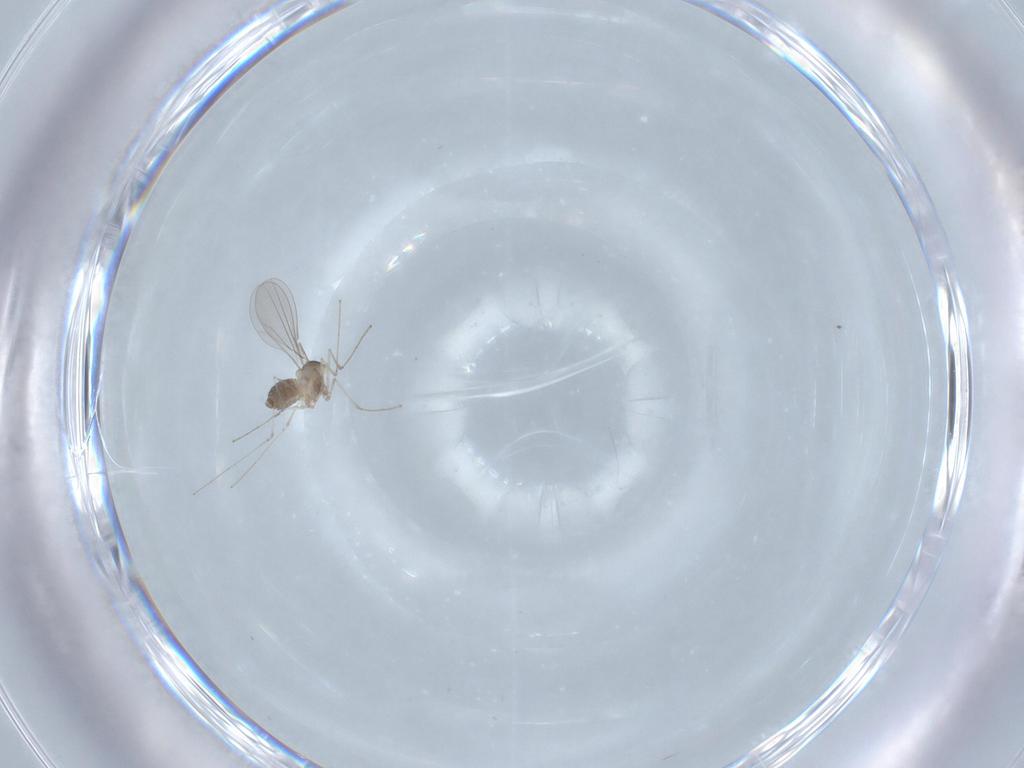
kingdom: Animalia
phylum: Arthropoda
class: Insecta
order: Diptera
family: Cecidomyiidae
